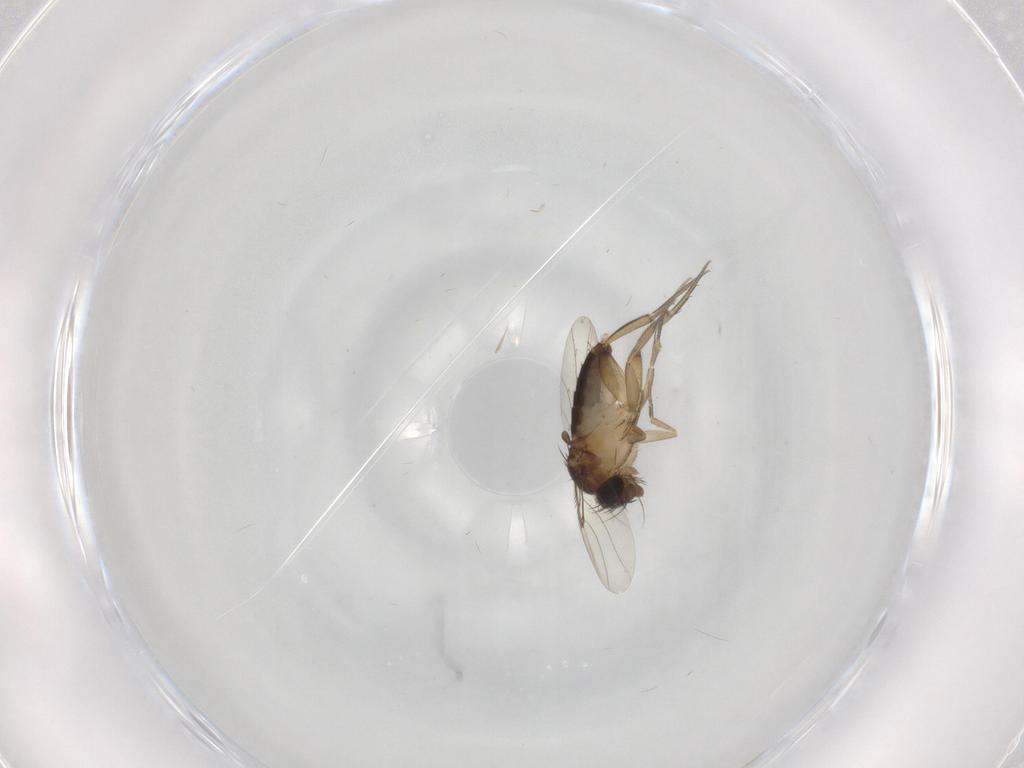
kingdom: Animalia
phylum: Arthropoda
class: Insecta
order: Diptera
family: Phoridae
